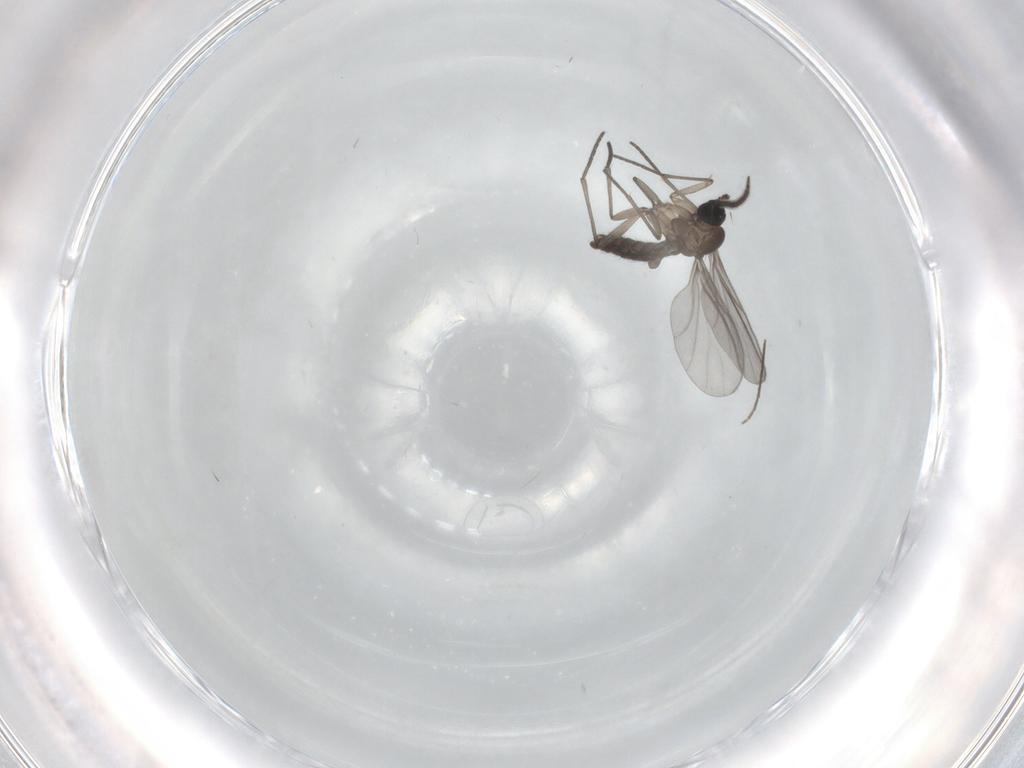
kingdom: Animalia
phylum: Arthropoda
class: Insecta
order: Diptera
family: Chironomidae
